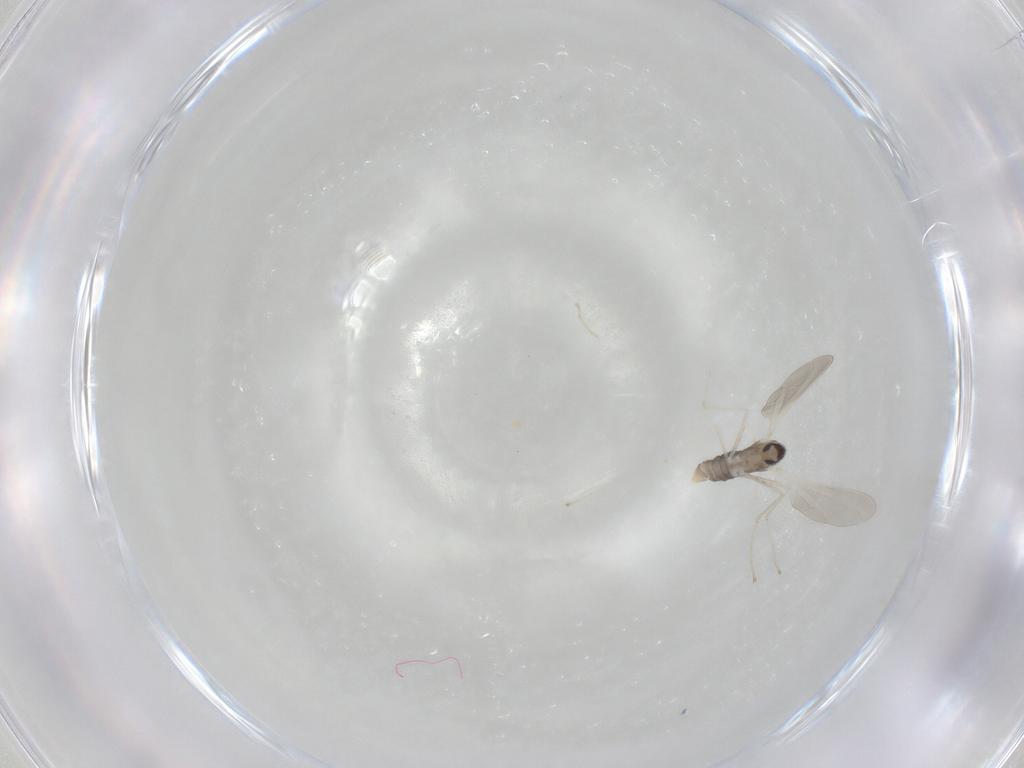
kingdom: Animalia
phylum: Arthropoda
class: Insecta
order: Diptera
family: Cecidomyiidae
